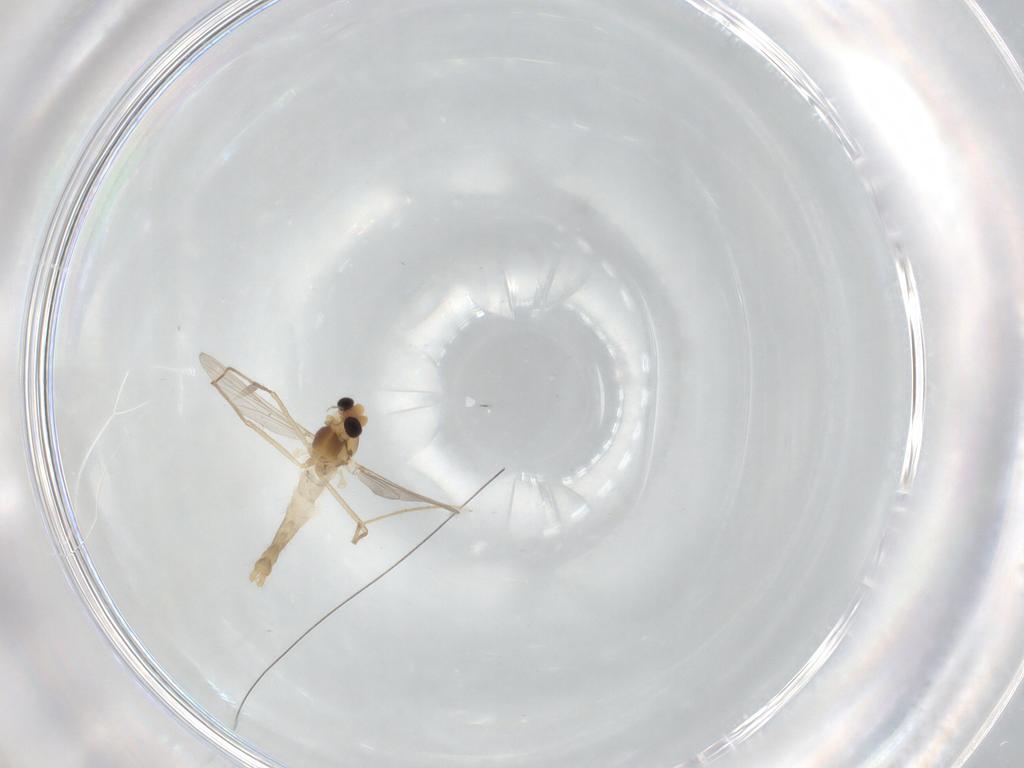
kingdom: Animalia
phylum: Arthropoda
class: Insecta
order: Diptera
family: Chironomidae
